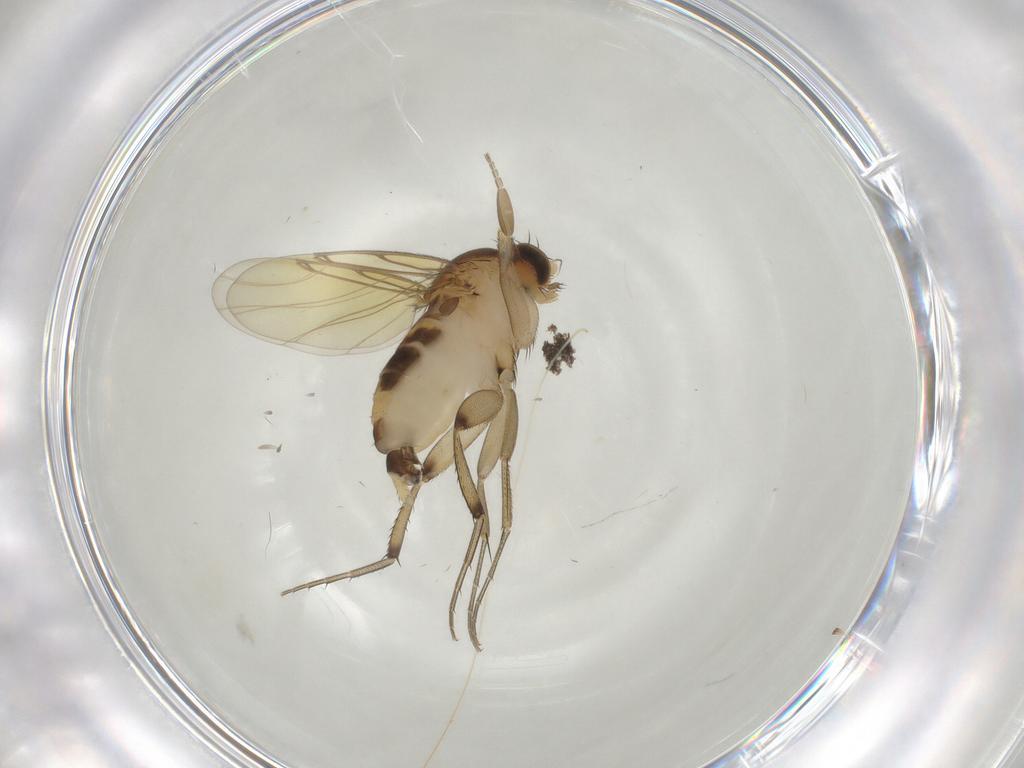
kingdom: Animalia
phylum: Arthropoda
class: Insecta
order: Diptera
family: Phoridae
